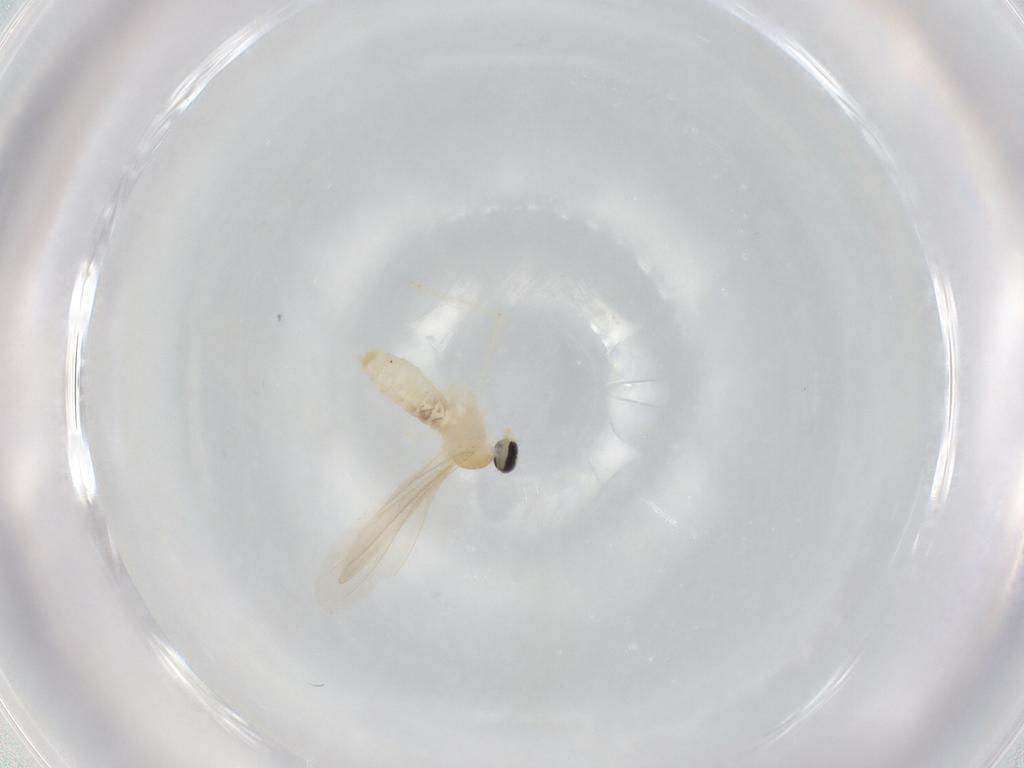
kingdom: Animalia
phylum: Arthropoda
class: Insecta
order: Diptera
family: Cecidomyiidae
